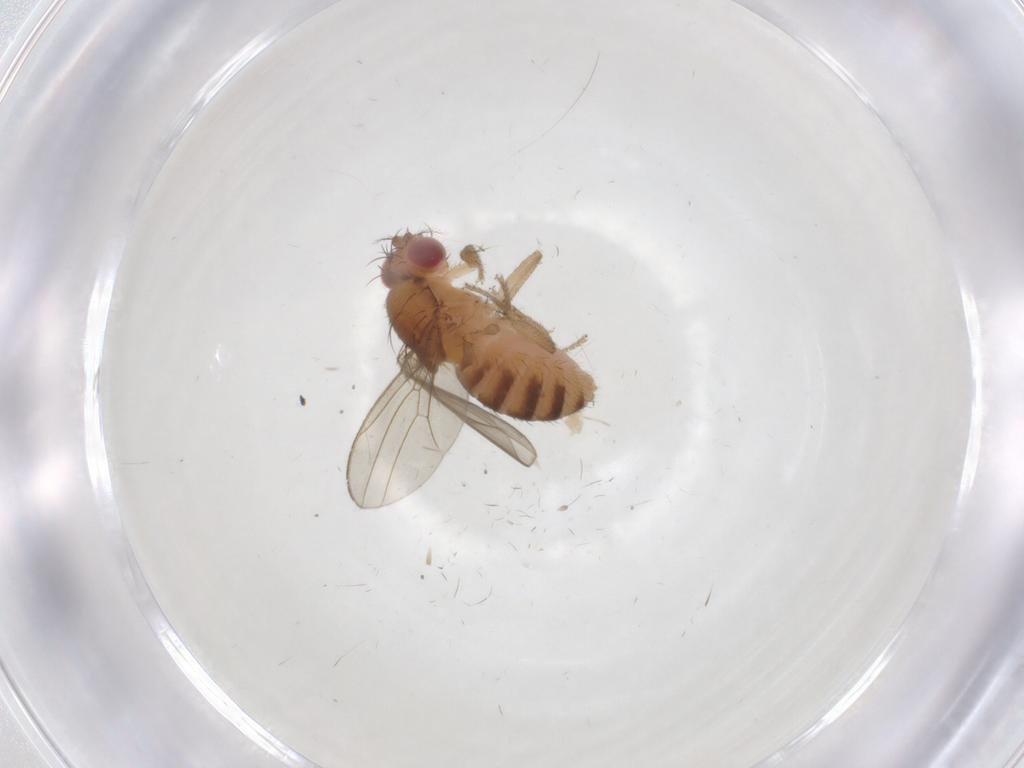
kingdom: Animalia
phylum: Arthropoda
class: Insecta
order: Diptera
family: Drosophilidae
